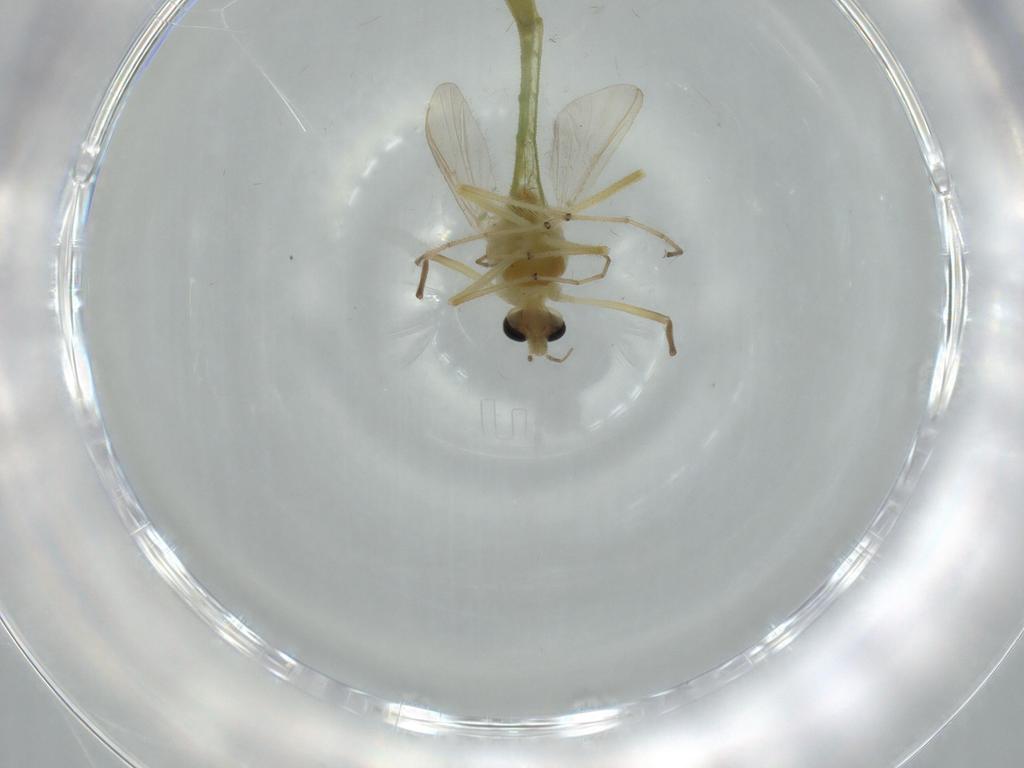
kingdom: Animalia
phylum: Arthropoda
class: Insecta
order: Diptera
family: Chironomidae
